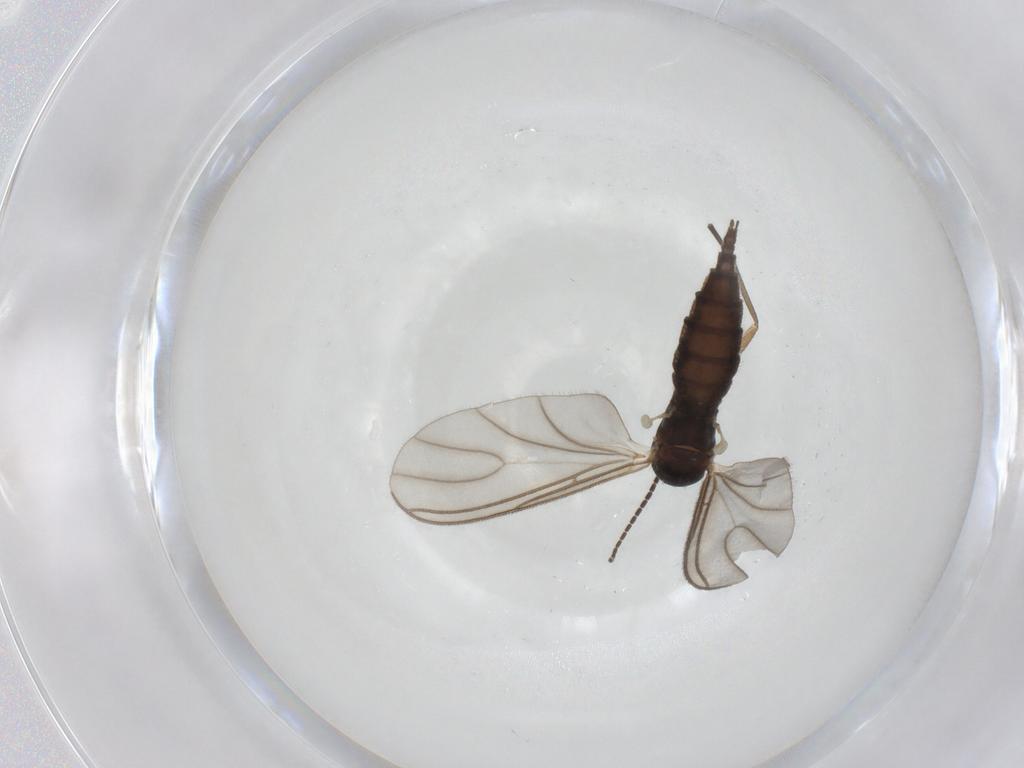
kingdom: Animalia
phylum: Arthropoda
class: Insecta
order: Diptera
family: Sciaridae
